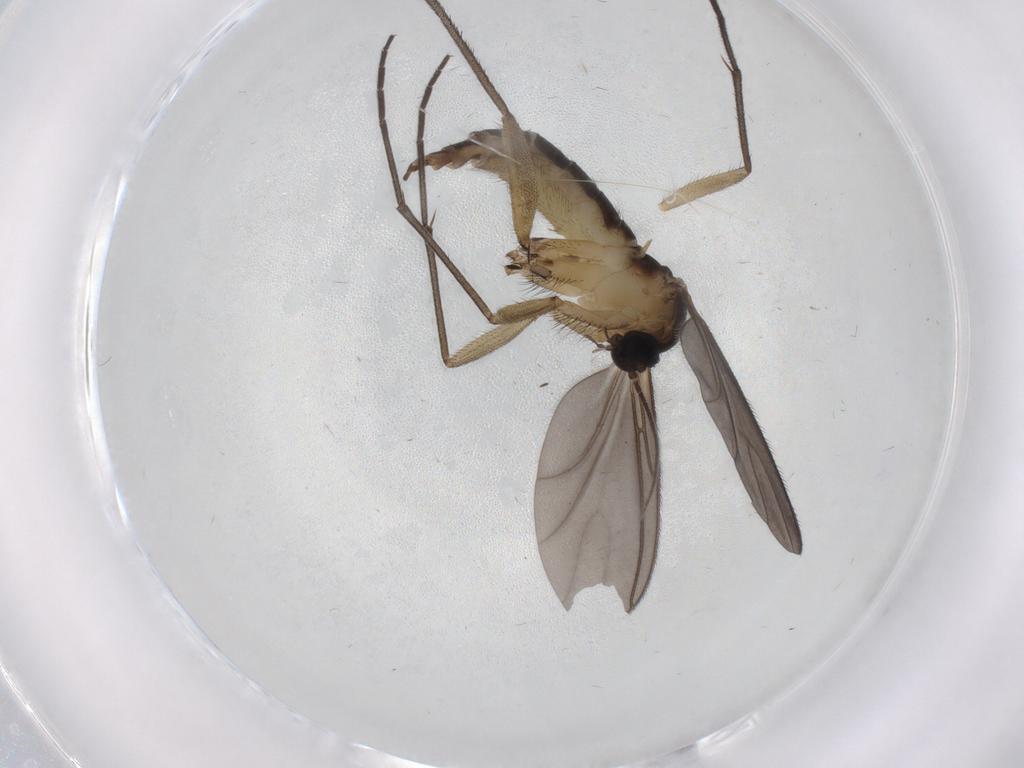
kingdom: Animalia
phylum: Arthropoda
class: Insecta
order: Diptera
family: Sciaridae
